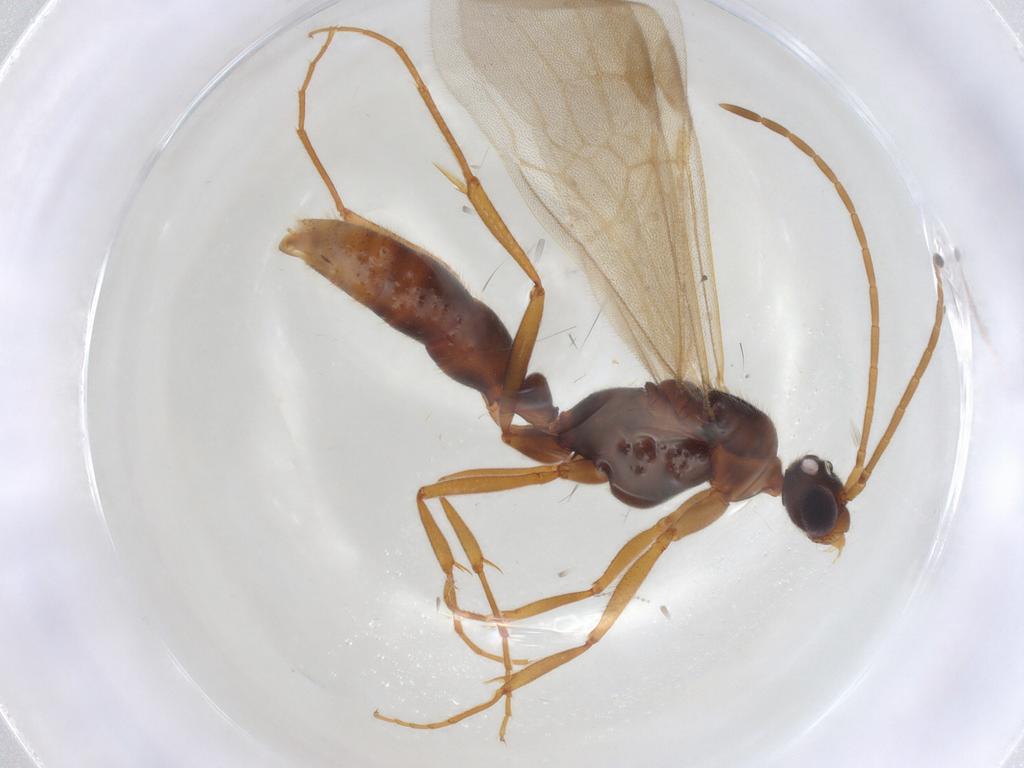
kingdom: Animalia
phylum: Arthropoda
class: Insecta
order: Hymenoptera
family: Formicidae
